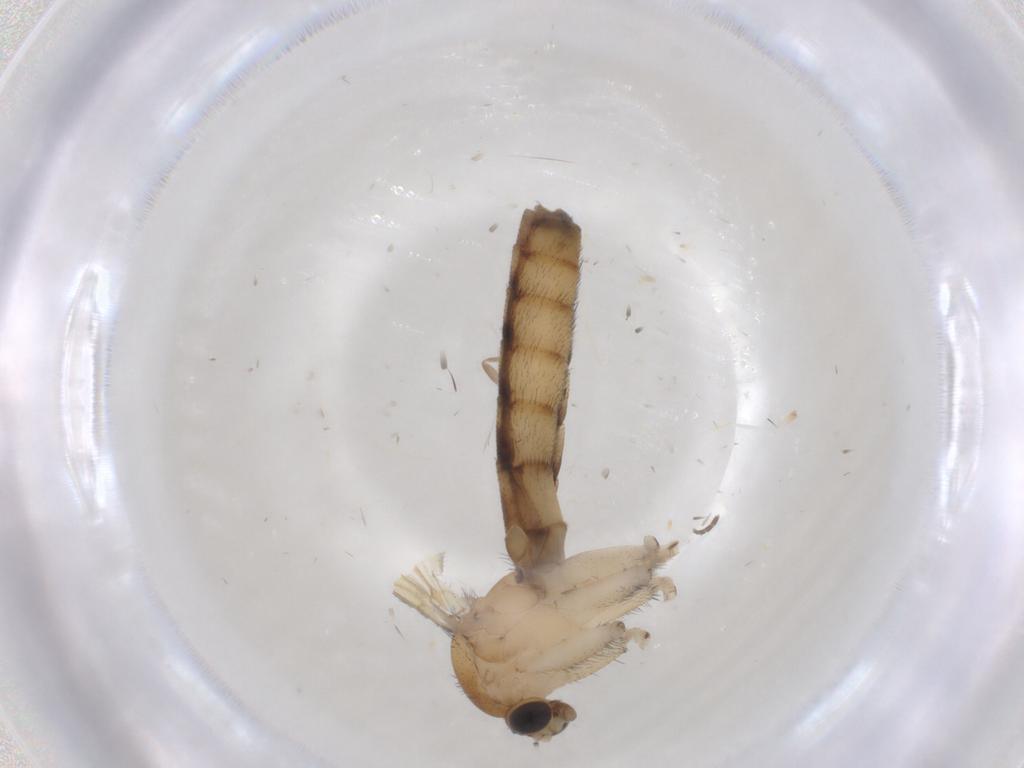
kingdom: Animalia
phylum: Arthropoda
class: Insecta
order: Diptera
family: Keroplatidae
